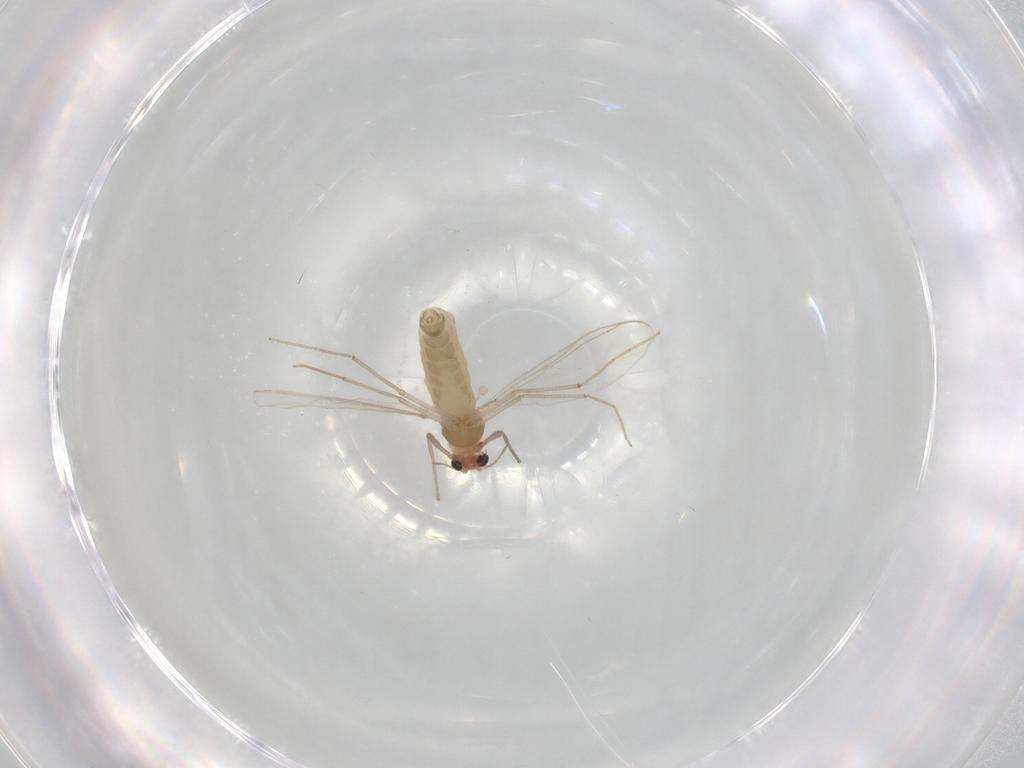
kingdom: Animalia
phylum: Arthropoda
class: Insecta
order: Diptera
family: Chironomidae
